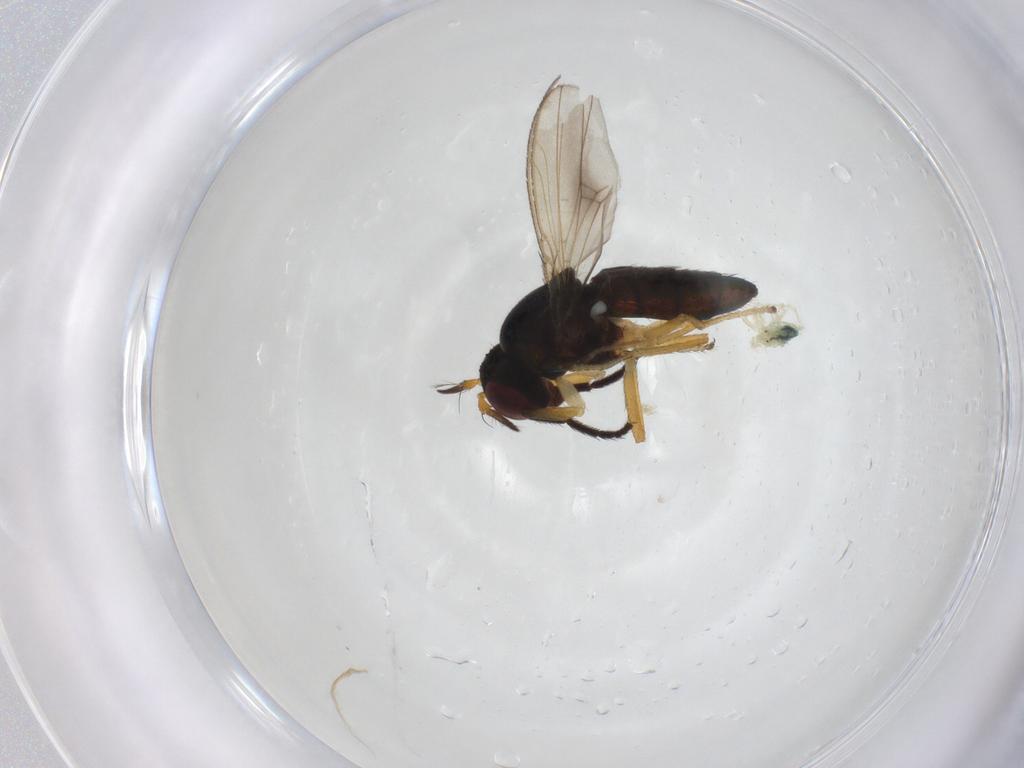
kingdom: Animalia
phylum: Arthropoda
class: Insecta
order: Diptera
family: Ephydridae
